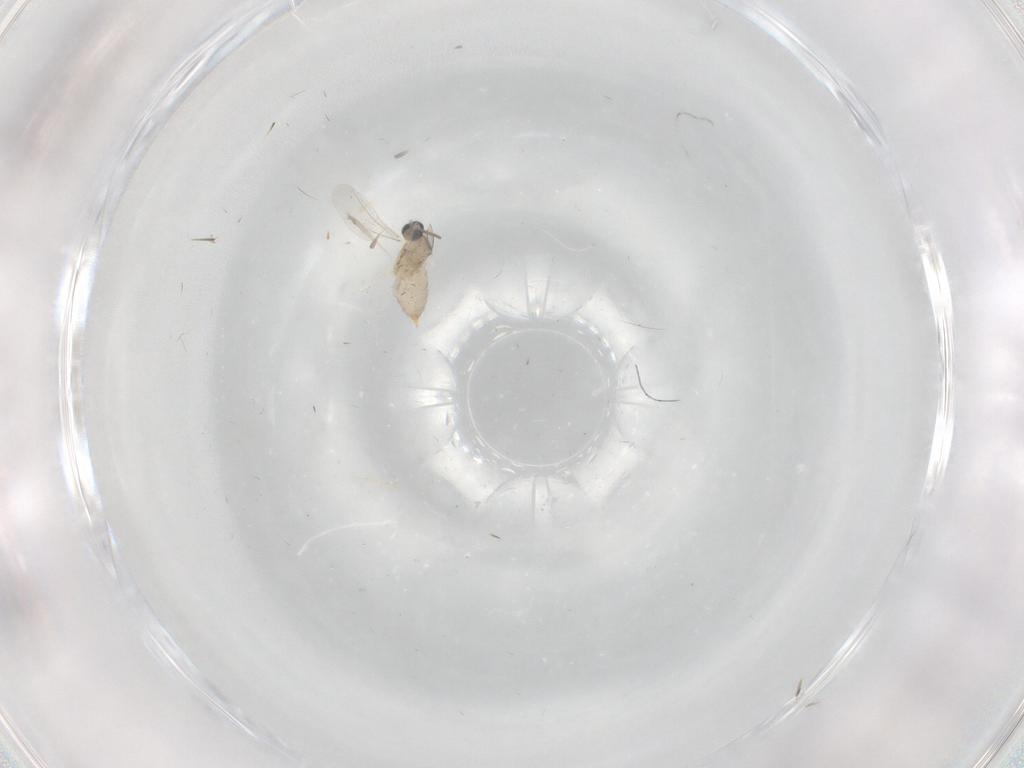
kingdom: Animalia
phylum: Arthropoda
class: Insecta
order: Diptera
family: Cecidomyiidae
